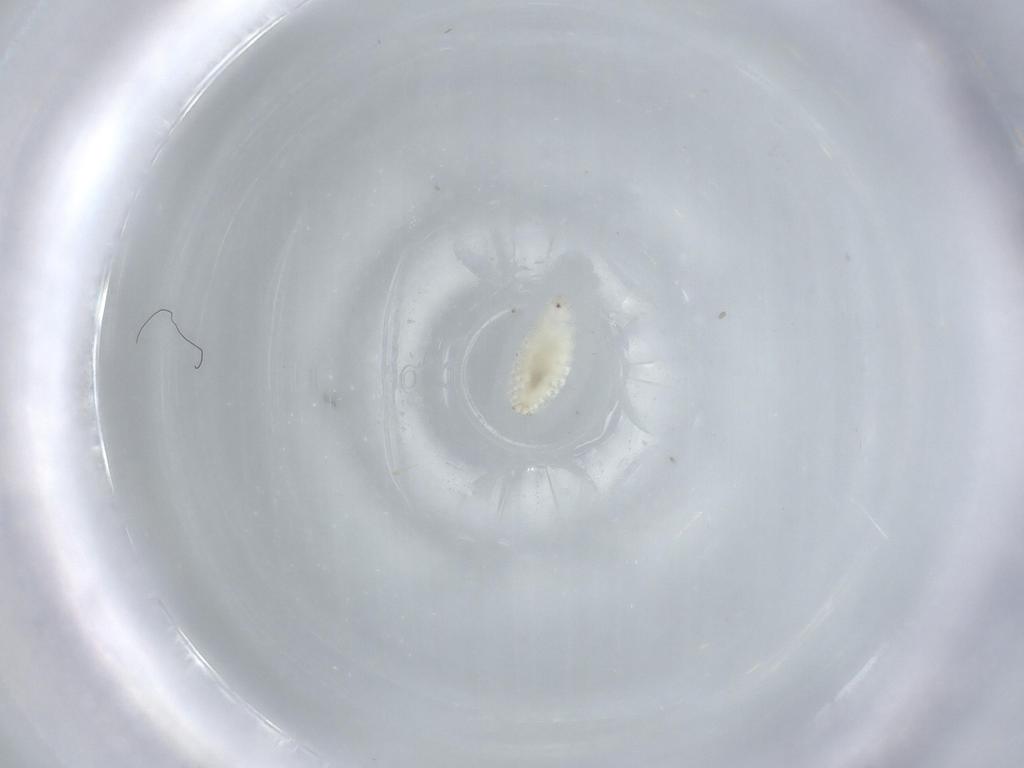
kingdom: Animalia
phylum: Arthropoda
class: Insecta
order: Diptera
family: Cecidomyiidae
